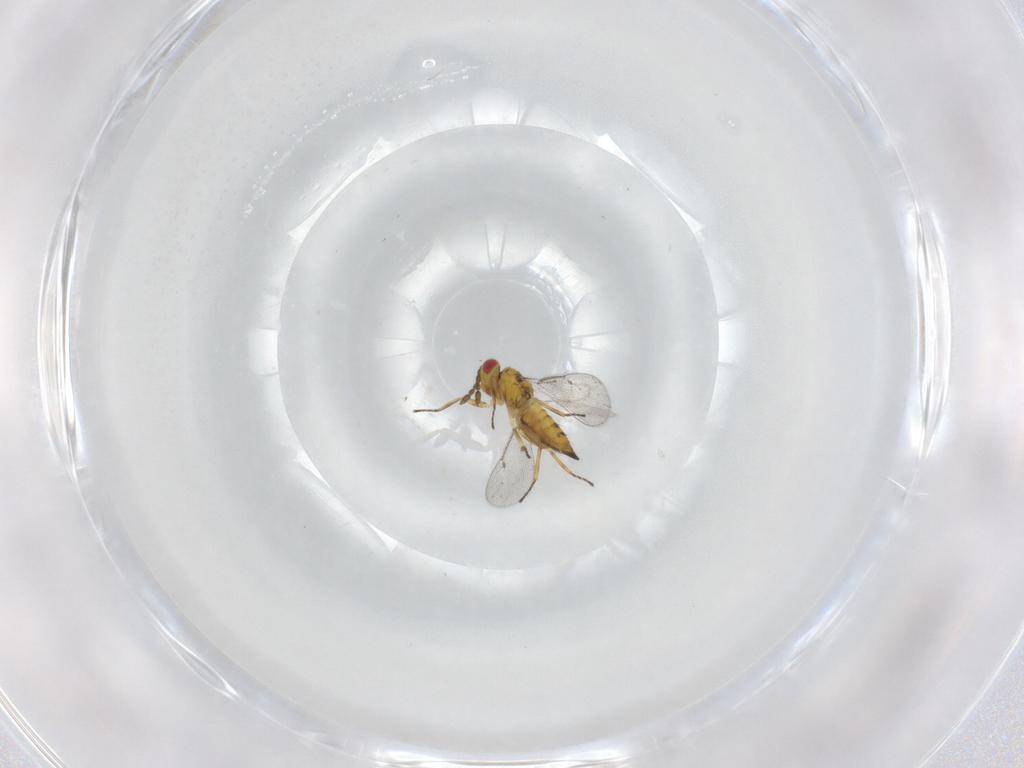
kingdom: Animalia
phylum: Arthropoda
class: Insecta
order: Hymenoptera
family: Eulophidae
